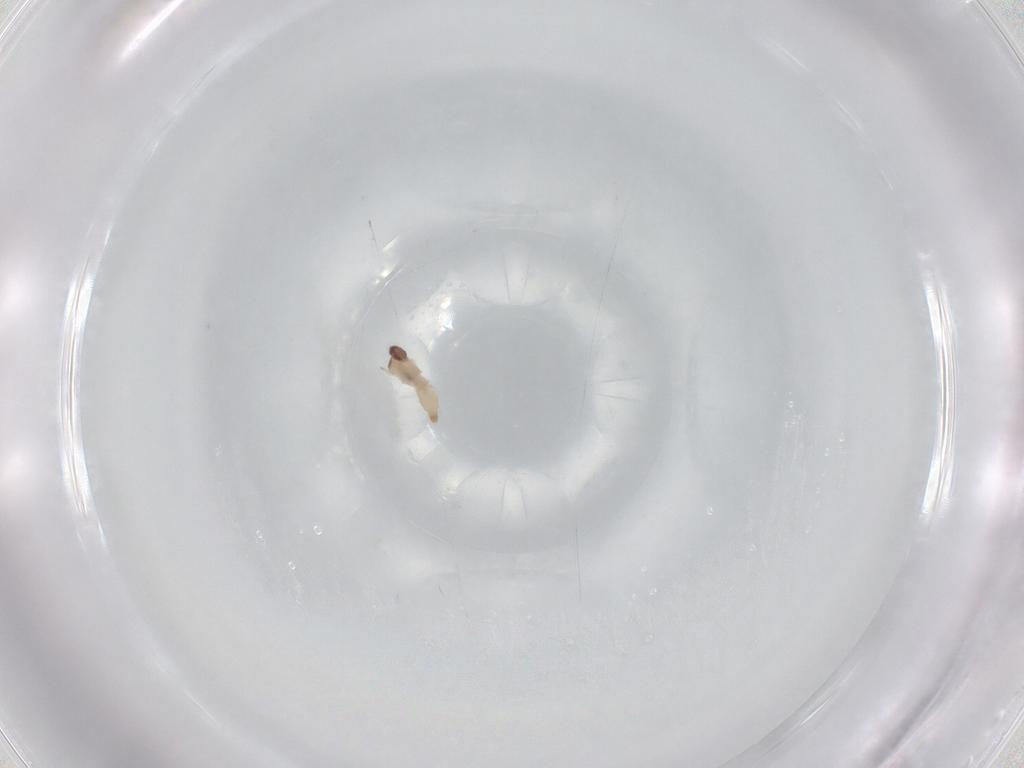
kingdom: Animalia
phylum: Arthropoda
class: Insecta
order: Diptera
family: Cecidomyiidae
